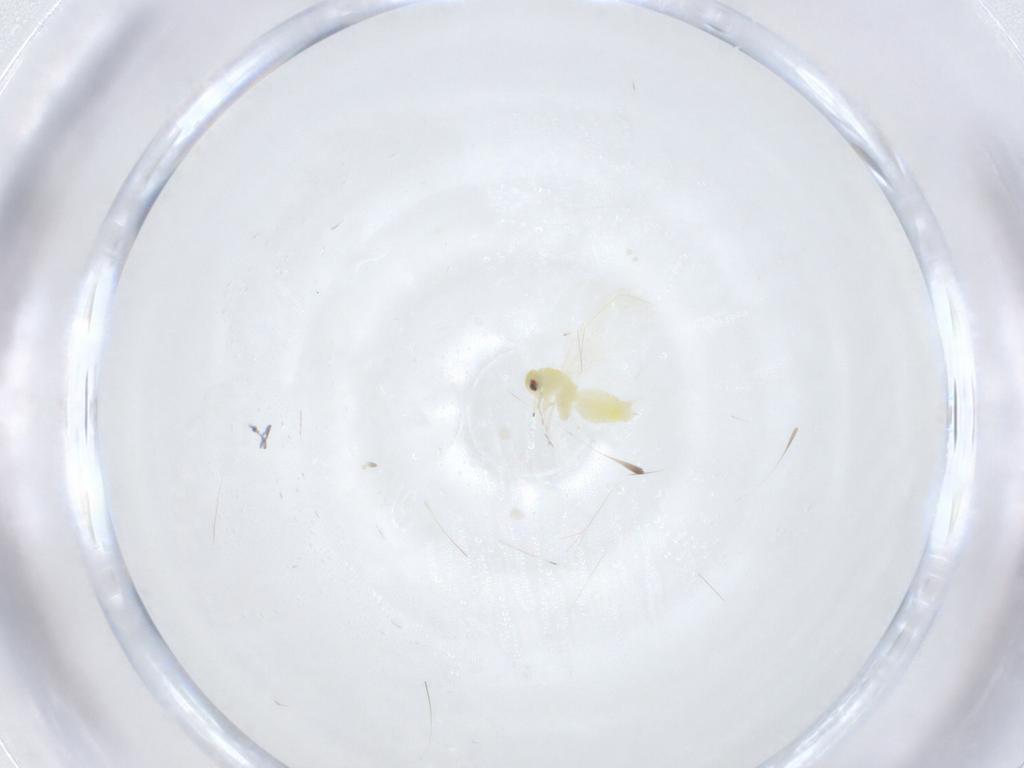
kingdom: Animalia
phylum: Arthropoda
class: Insecta
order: Hemiptera
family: Aleyrodidae
